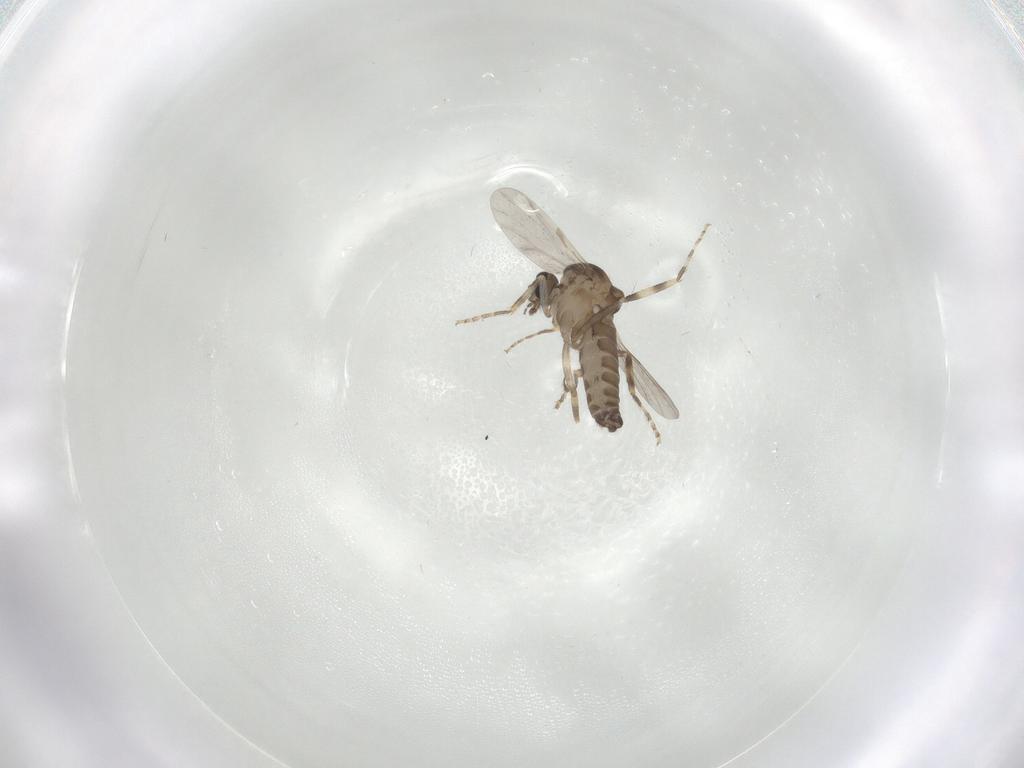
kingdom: Animalia
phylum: Arthropoda
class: Insecta
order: Diptera
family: Ceratopogonidae
